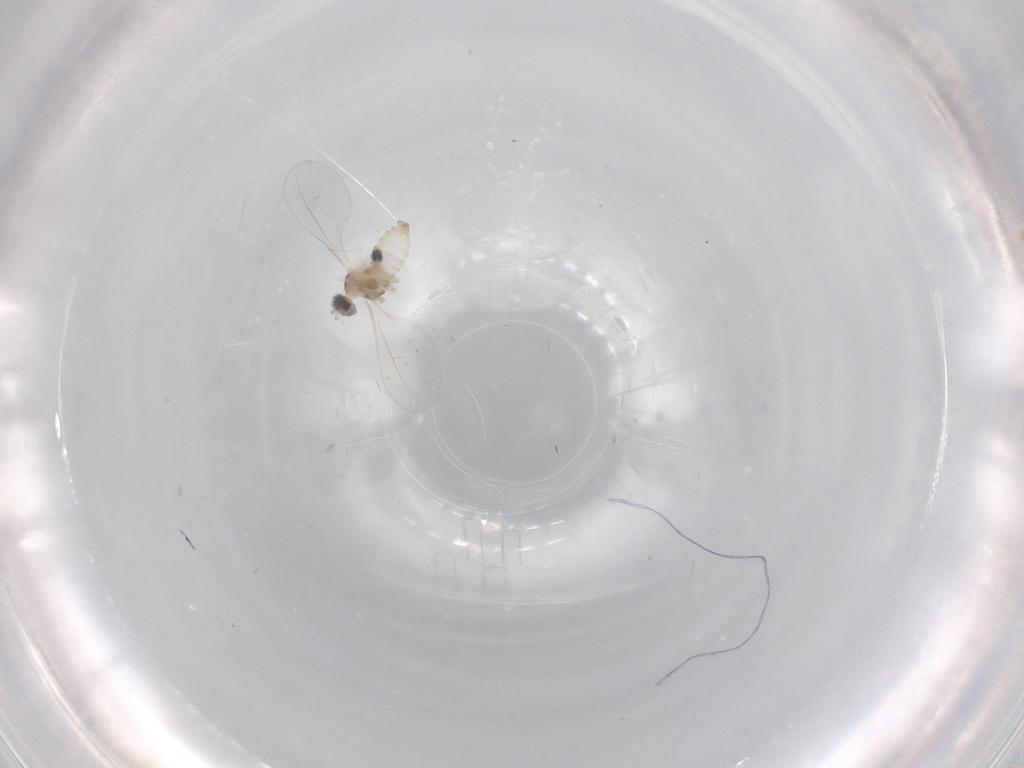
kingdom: Animalia
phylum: Arthropoda
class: Insecta
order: Diptera
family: Cecidomyiidae
